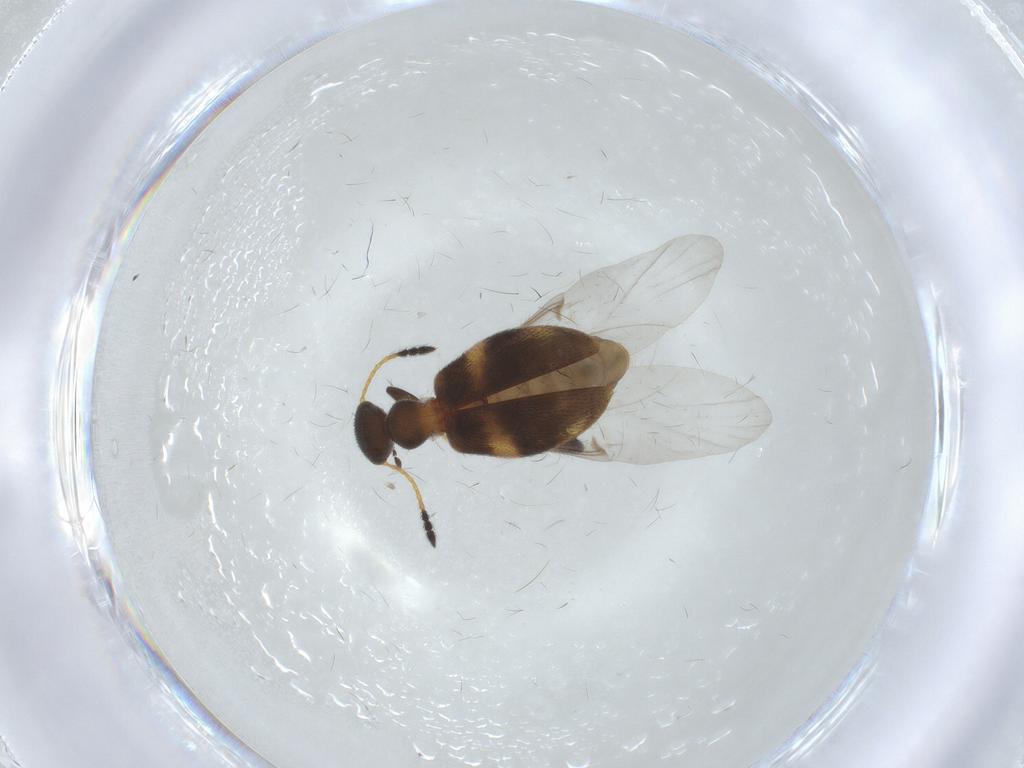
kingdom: Animalia
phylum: Arthropoda
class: Insecta
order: Coleoptera
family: Anthicidae
